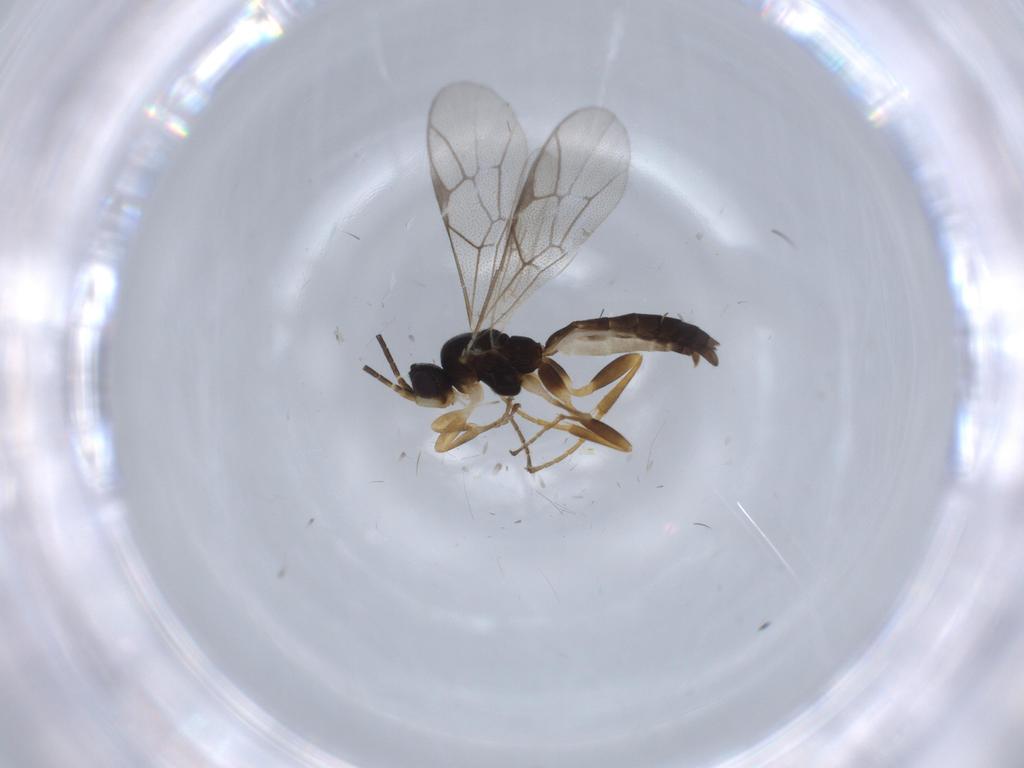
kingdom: Animalia
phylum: Arthropoda
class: Insecta
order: Hymenoptera
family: Ichneumonidae
